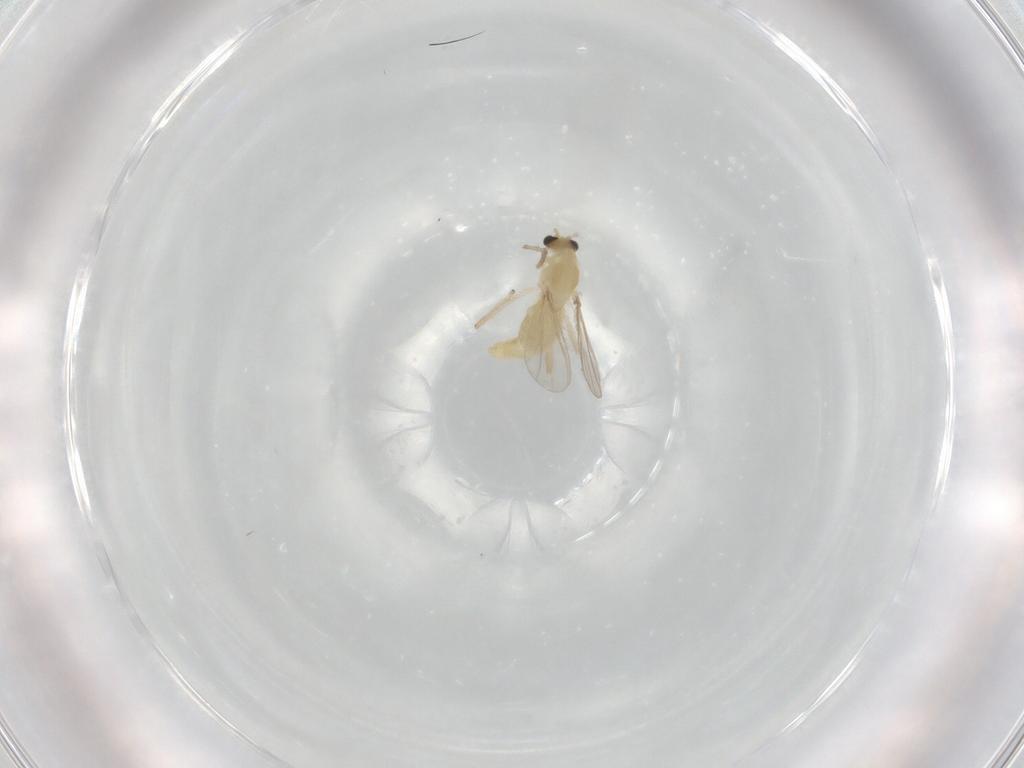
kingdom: Animalia
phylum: Arthropoda
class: Insecta
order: Diptera
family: Chironomidae
